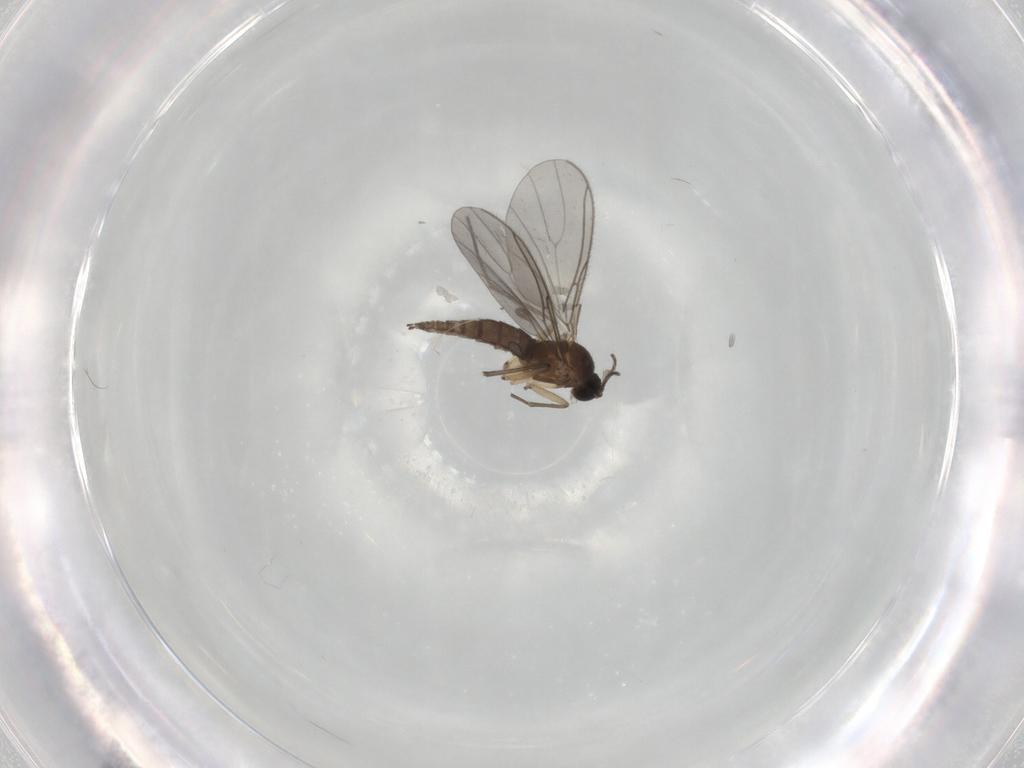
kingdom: Animalia
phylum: Arthropoda
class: Insecta
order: Diptera
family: Sciaridae
